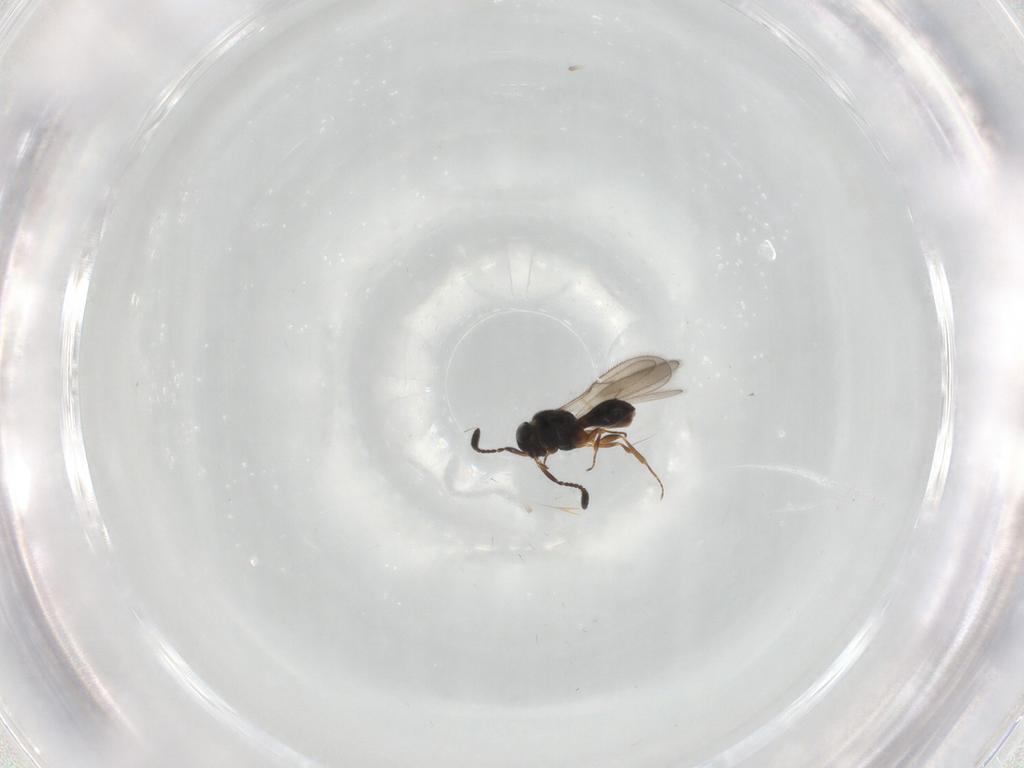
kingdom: Animalia
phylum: Arthropoda
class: Insecta
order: Hymenoptera
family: Scelionidae
